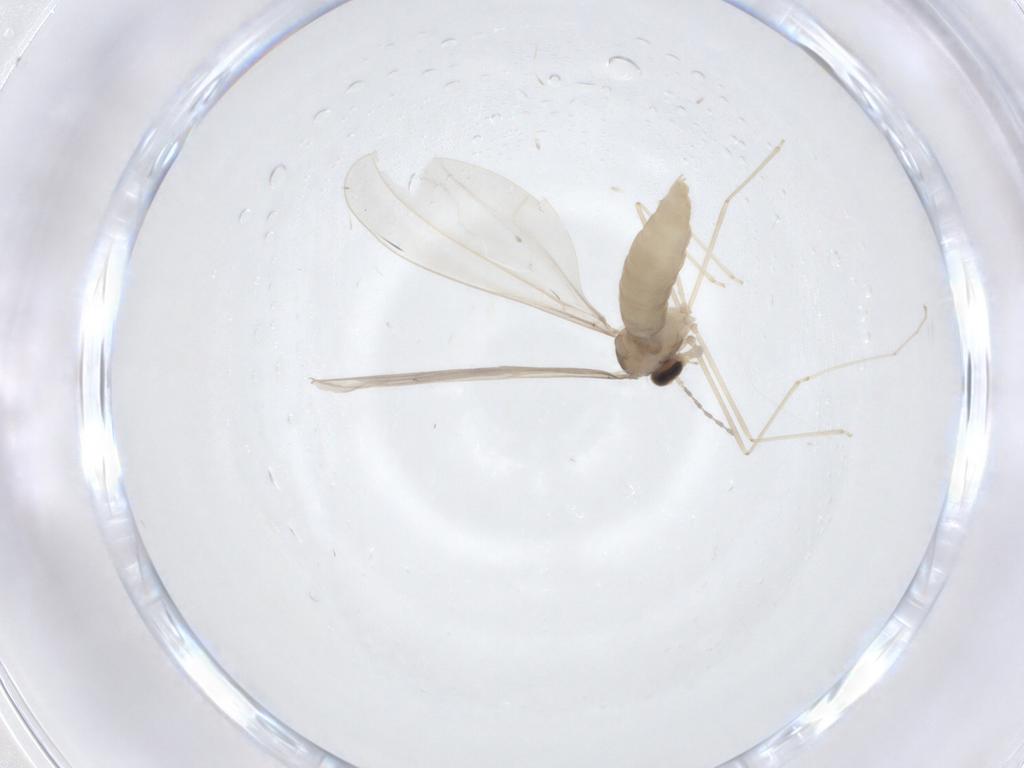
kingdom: Animalia
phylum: Arthropoda
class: Insecta
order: Diptera
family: Cecidomyiidae
